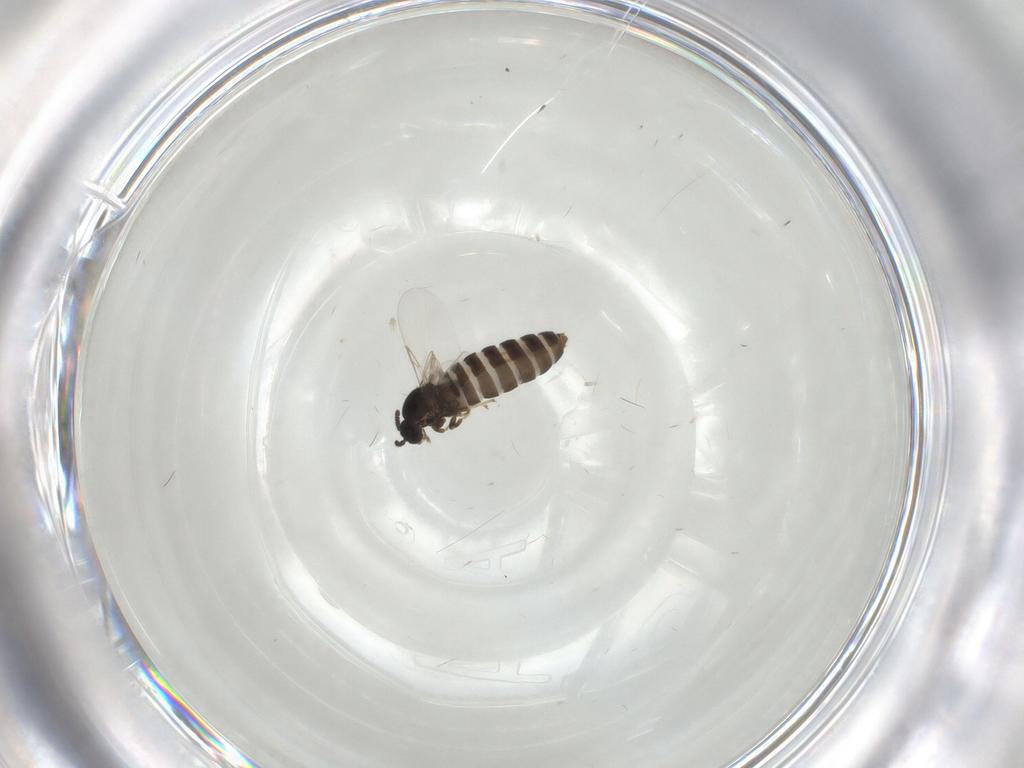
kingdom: Animalia
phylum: Arthropoda
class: Insecta
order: Diptera
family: Scatopsidae
